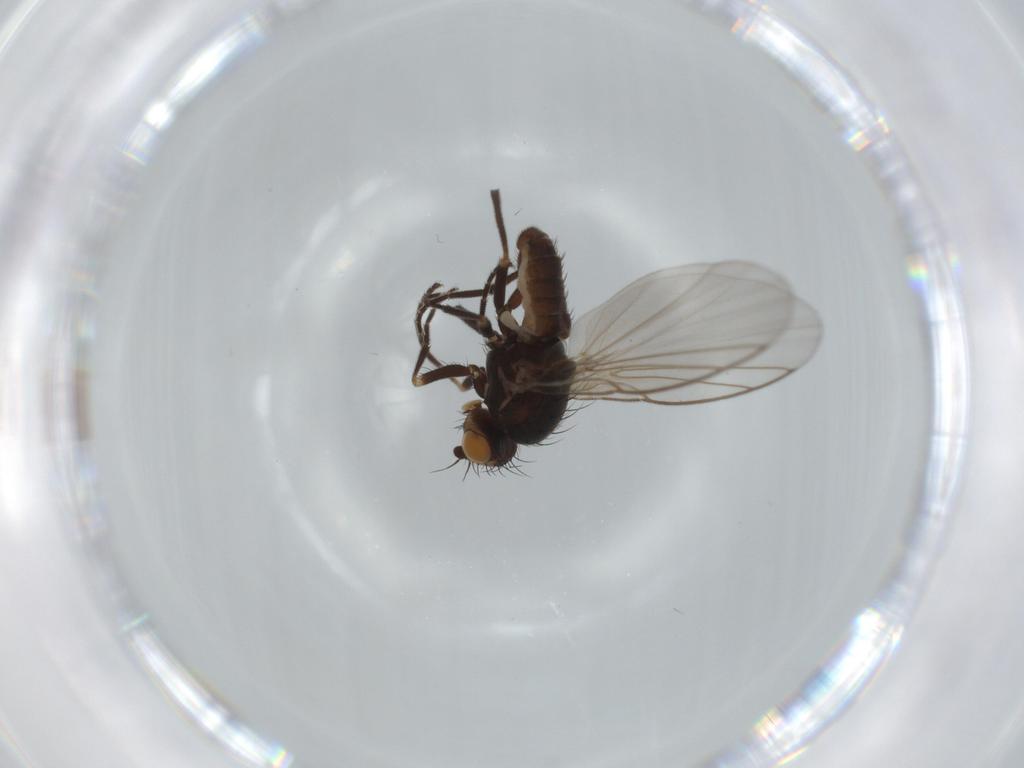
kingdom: Animalia
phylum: Arthropoda
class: Insecta
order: Diptera
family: Agromyzidae
